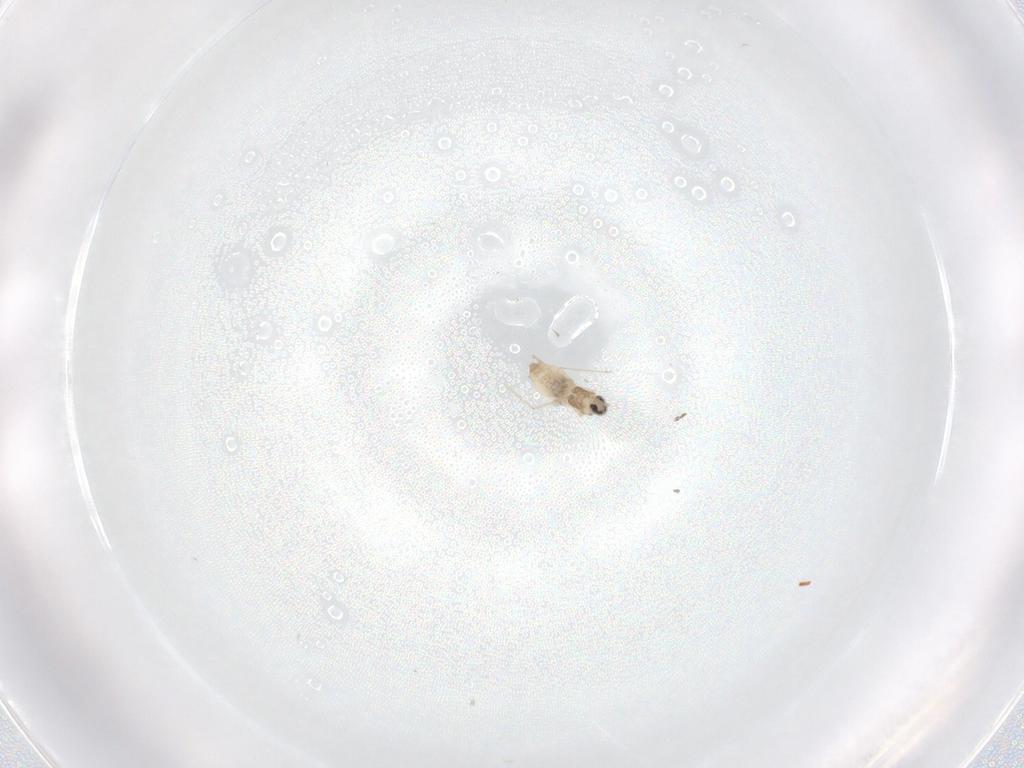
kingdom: Animalia
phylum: Arthropoda
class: Insecta
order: Diptera
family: Cecidomyiidae
